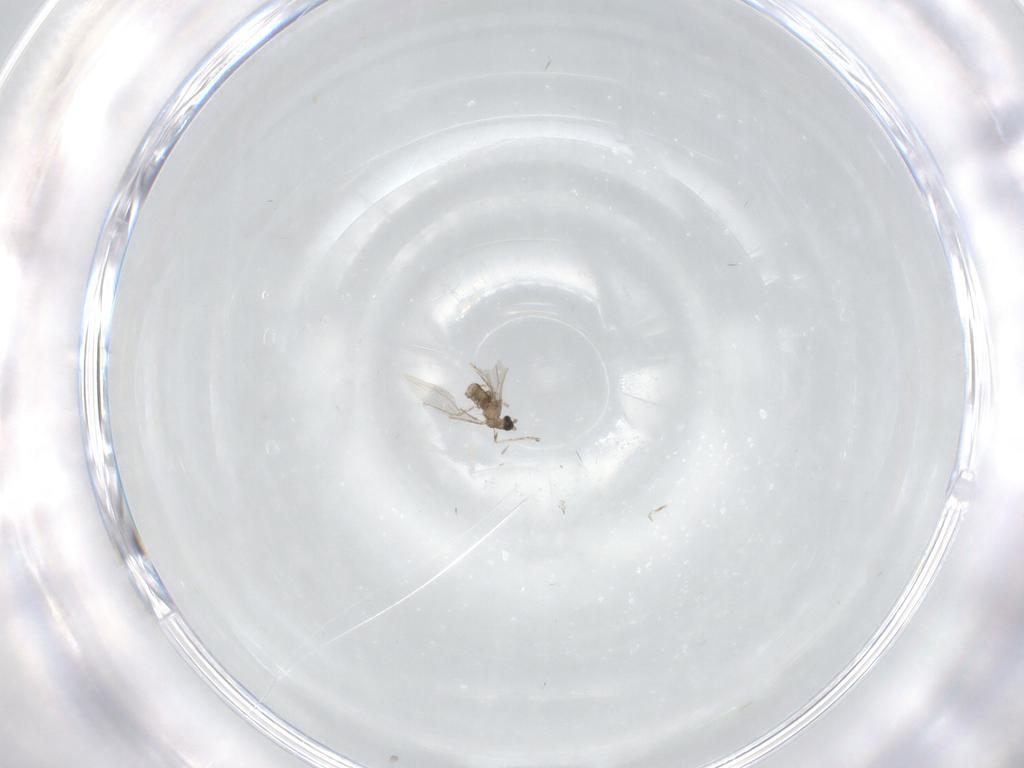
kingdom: Animalia
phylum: Arthropoda
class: Insecta
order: Diptera
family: Cecidomyiidae
